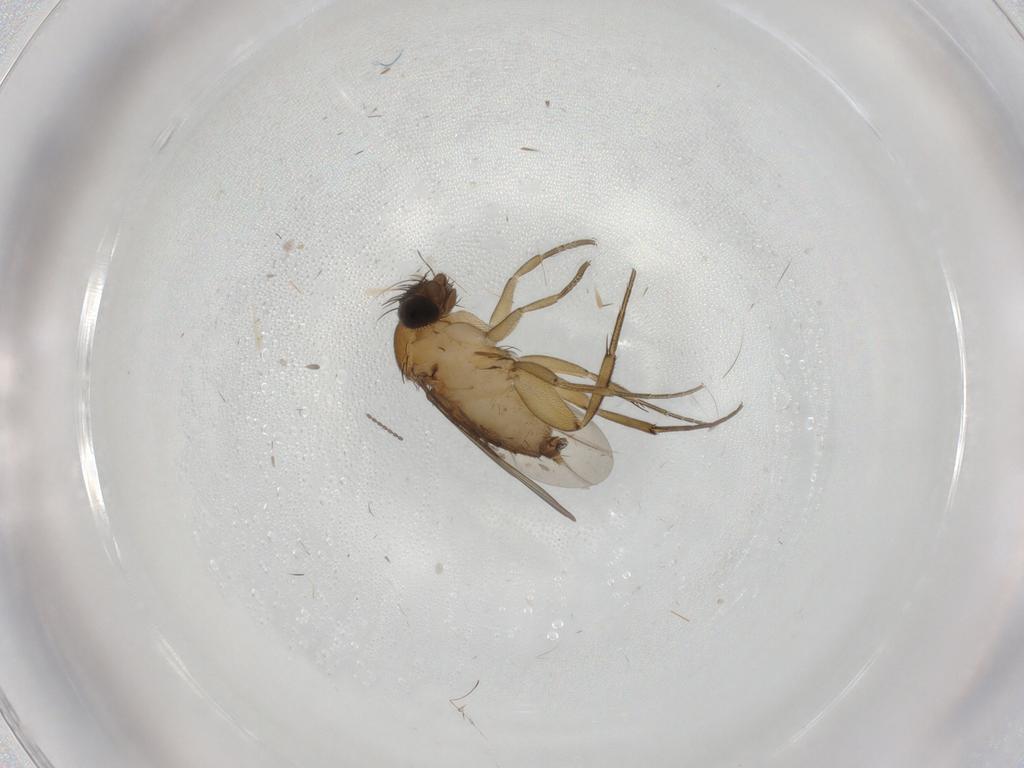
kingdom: Animalia
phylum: Arthropoda
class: Insecta
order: Diptera
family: Phoridae
